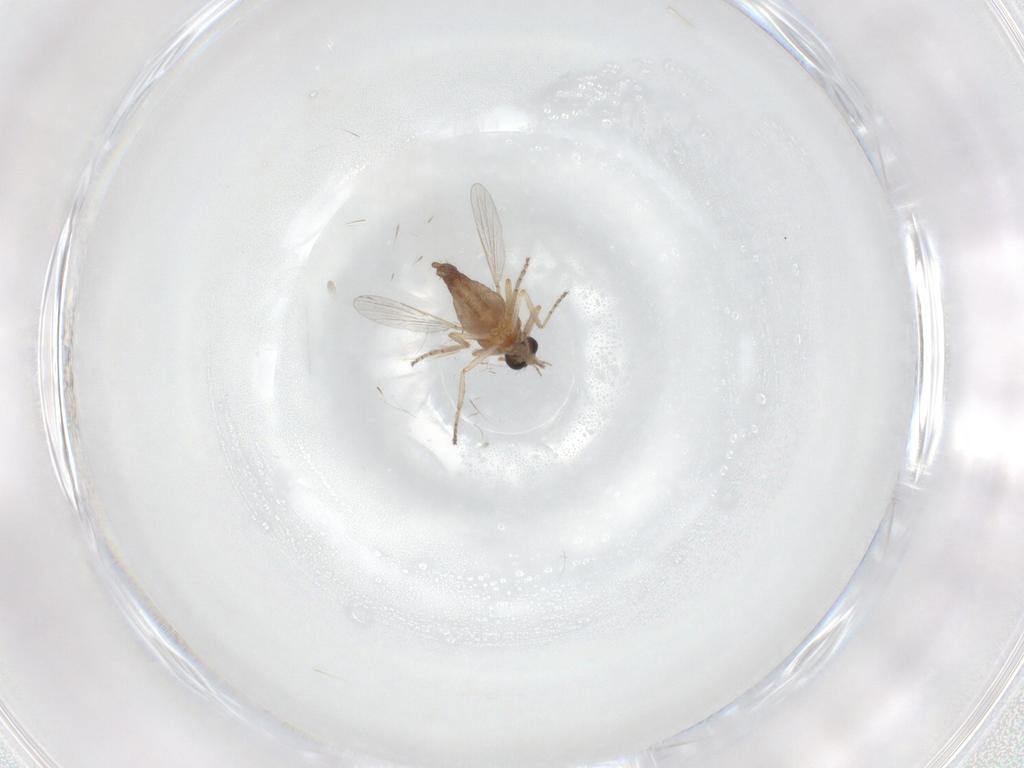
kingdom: Animalia
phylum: Arthropoda
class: Insecta
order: Diptera
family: Ceratopogonidae
